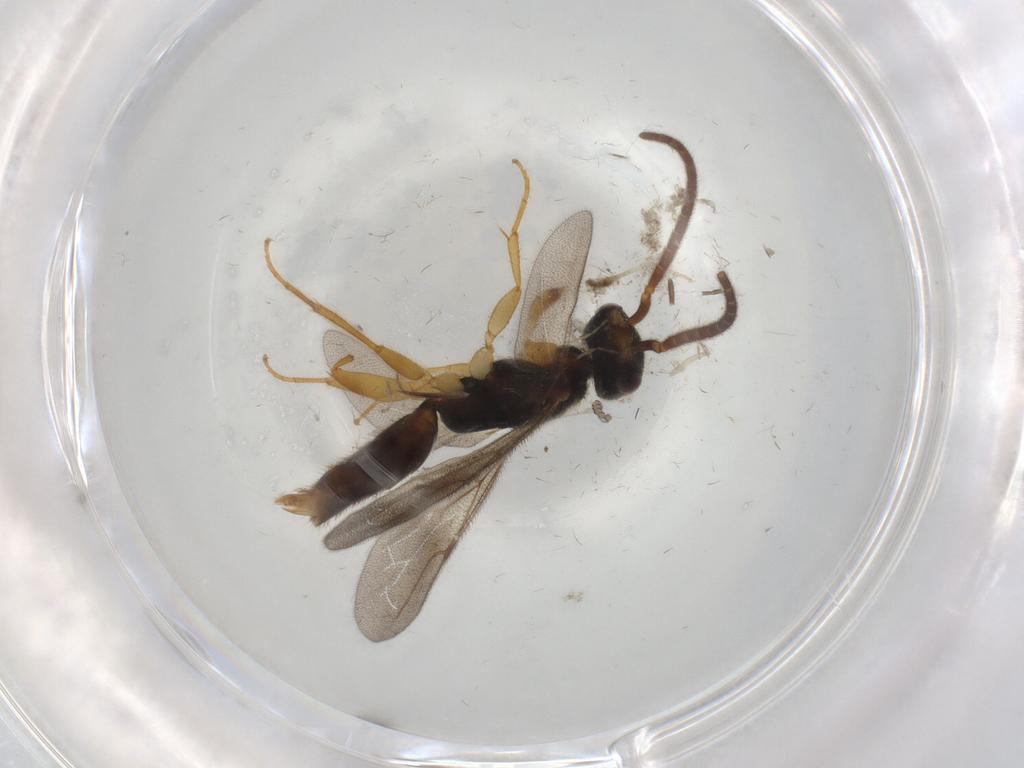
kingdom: Animalia
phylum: Arthropoda
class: Insecta
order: Hymenoptera
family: Bethylidae
